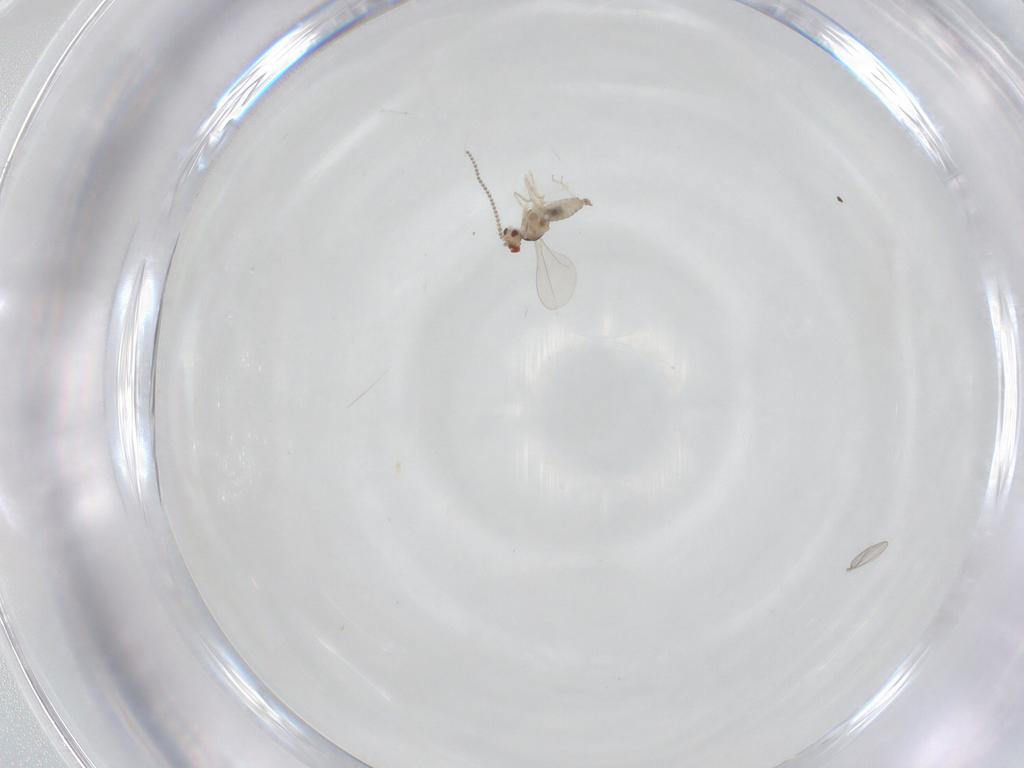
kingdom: Animalia
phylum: Arthropoda
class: Insecta
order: Diptera
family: Cecidomyiidae
